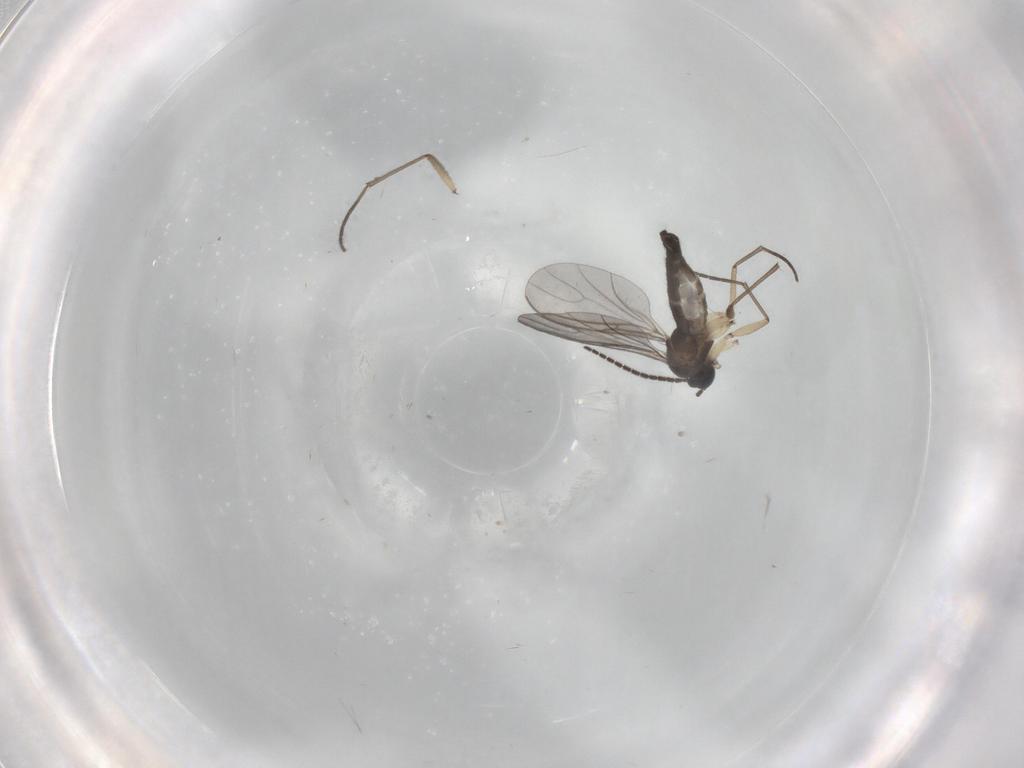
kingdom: Animalia
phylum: Arthropoda
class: Insecta
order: Diptera
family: Sciaridae
